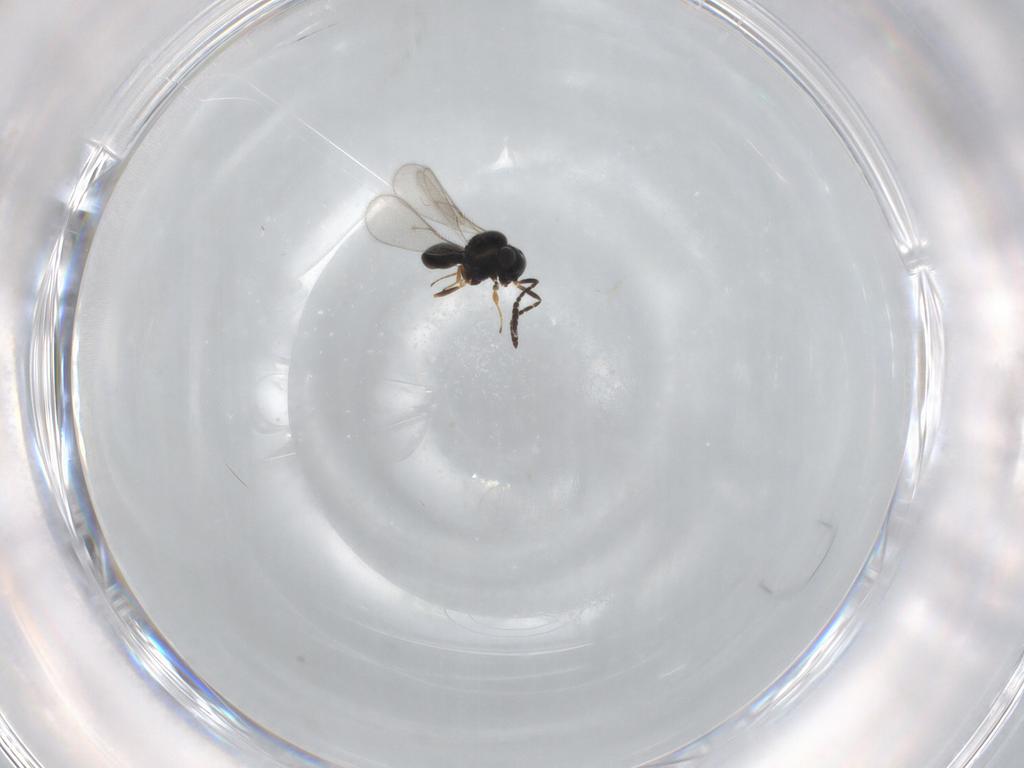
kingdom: Animalia
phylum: Arthropoda
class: Insecta
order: Hymenoptera
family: Scelionidae
